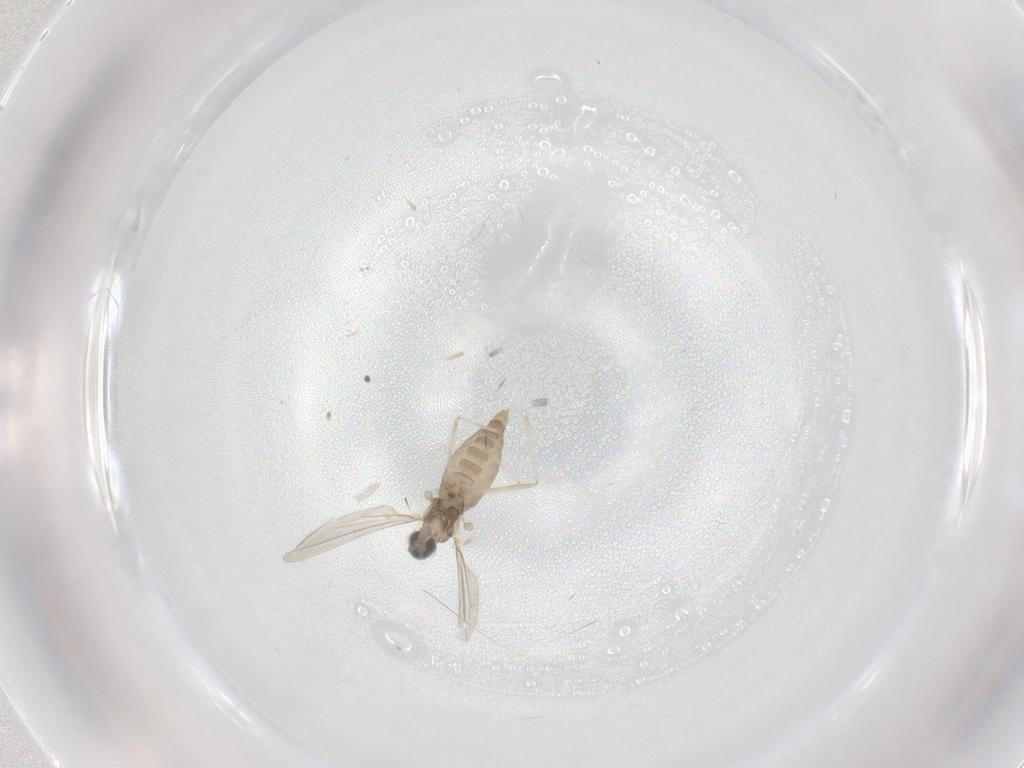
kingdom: Animalia
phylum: Arthropoda
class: Insecta
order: Diptera
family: Cecidomyiidae
